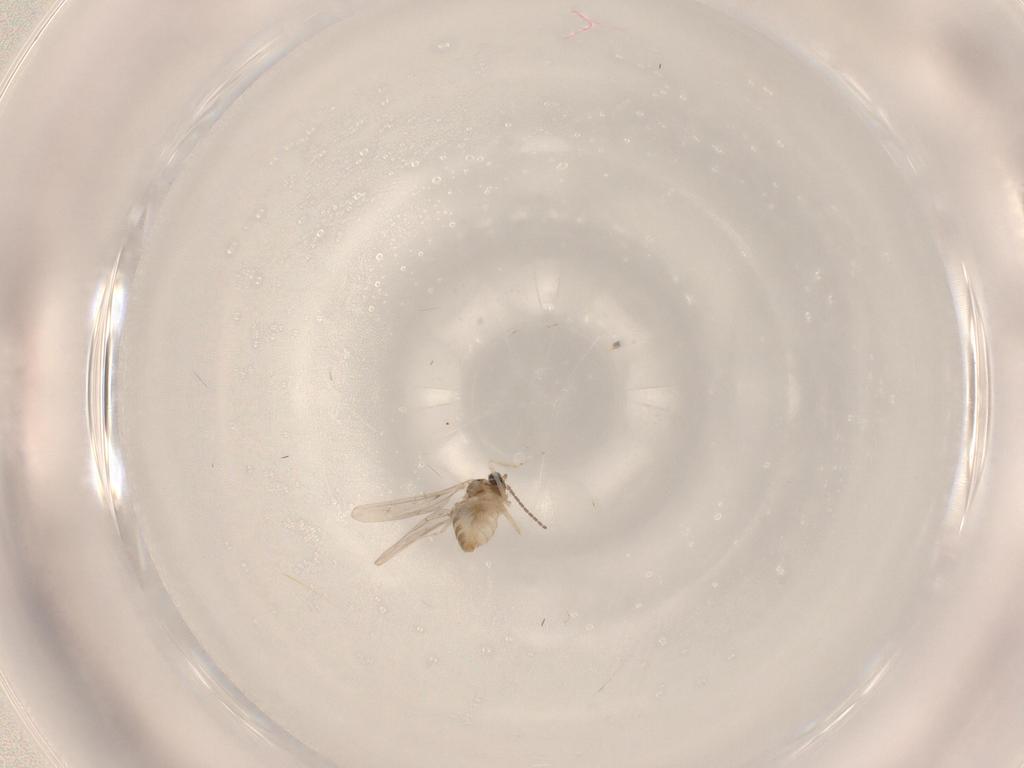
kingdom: Animalia
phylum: Arthropoda
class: Insecta
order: Diptera
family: Cecidomyiidae
